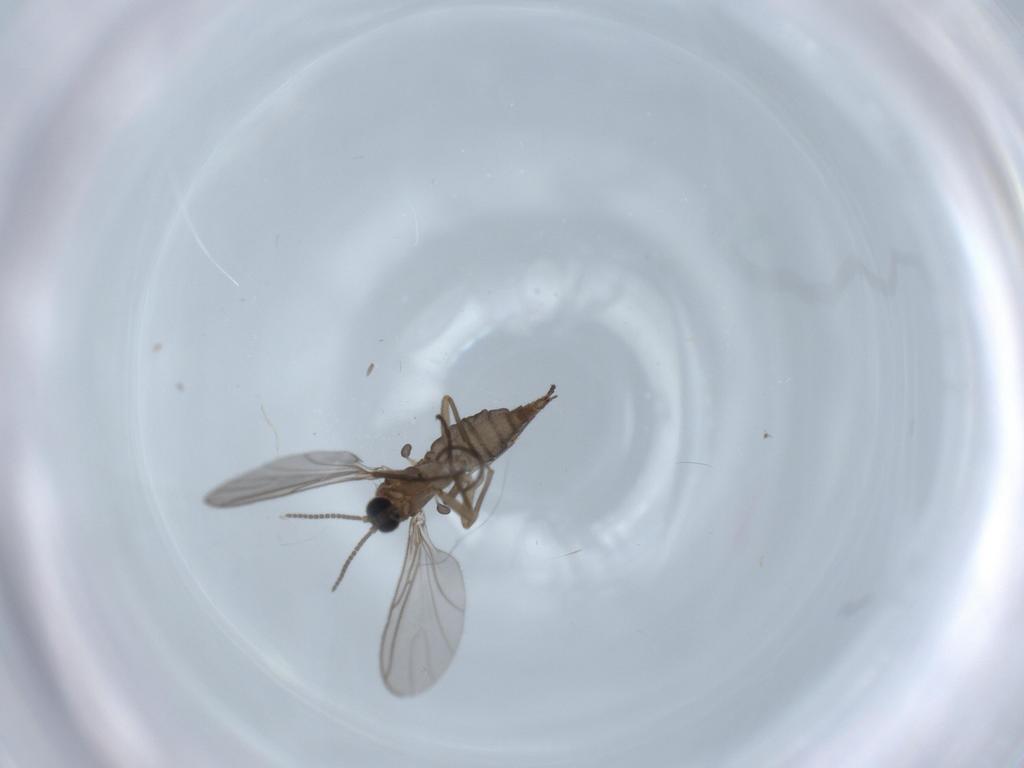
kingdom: Animalia
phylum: Arthropoda
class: Insecta
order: Diptera
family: Sciaridae
